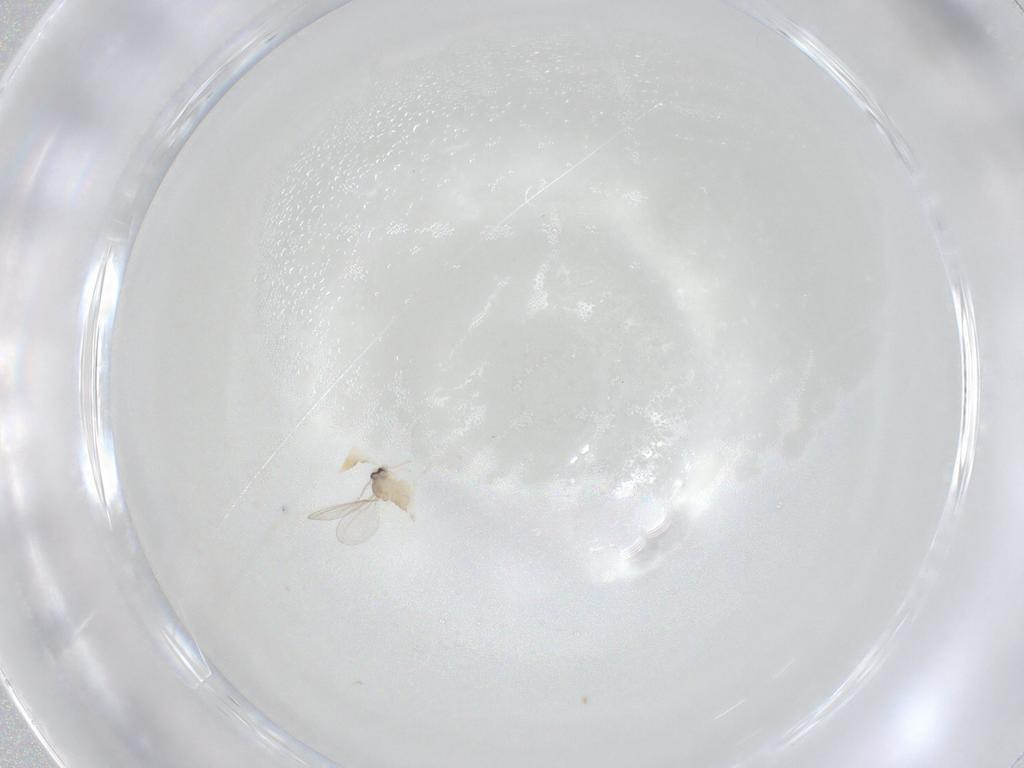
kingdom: Animalia
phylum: Arthropoda
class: Insecta
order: Diptera
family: Cecidomyiidae
